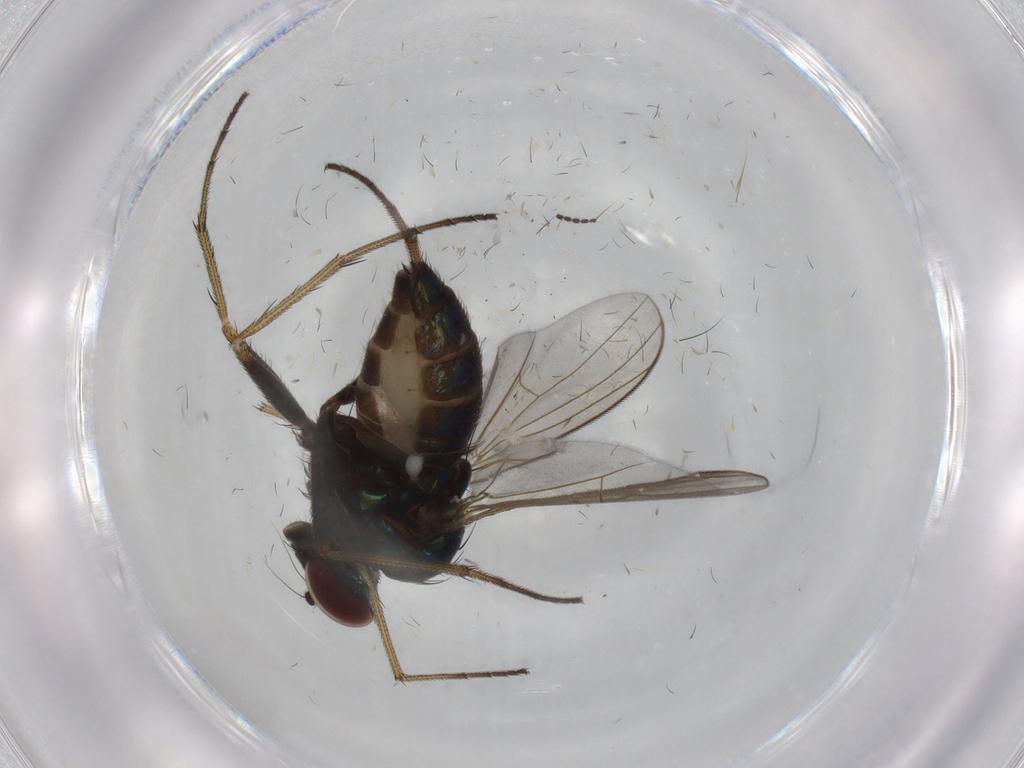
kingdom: Animalia
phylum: Arthropoda
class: Insecta
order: Diptera
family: Dolichopodidae
